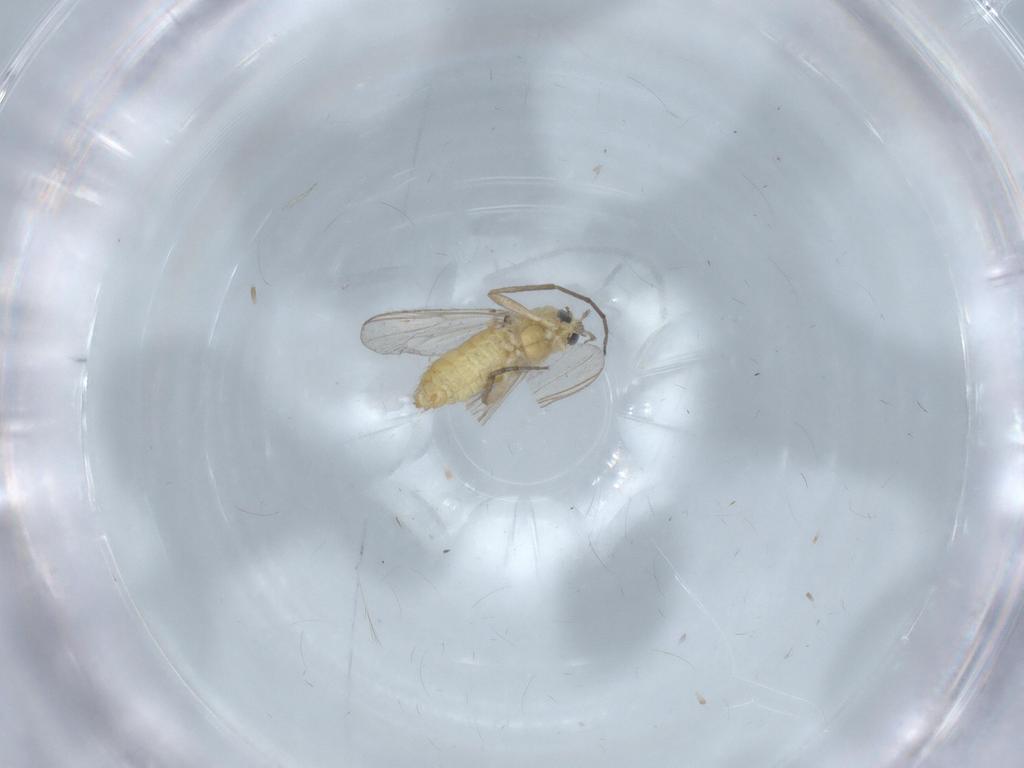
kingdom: Animalia
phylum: Arthropoda
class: Insecta
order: Diptera
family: Chironomidae
